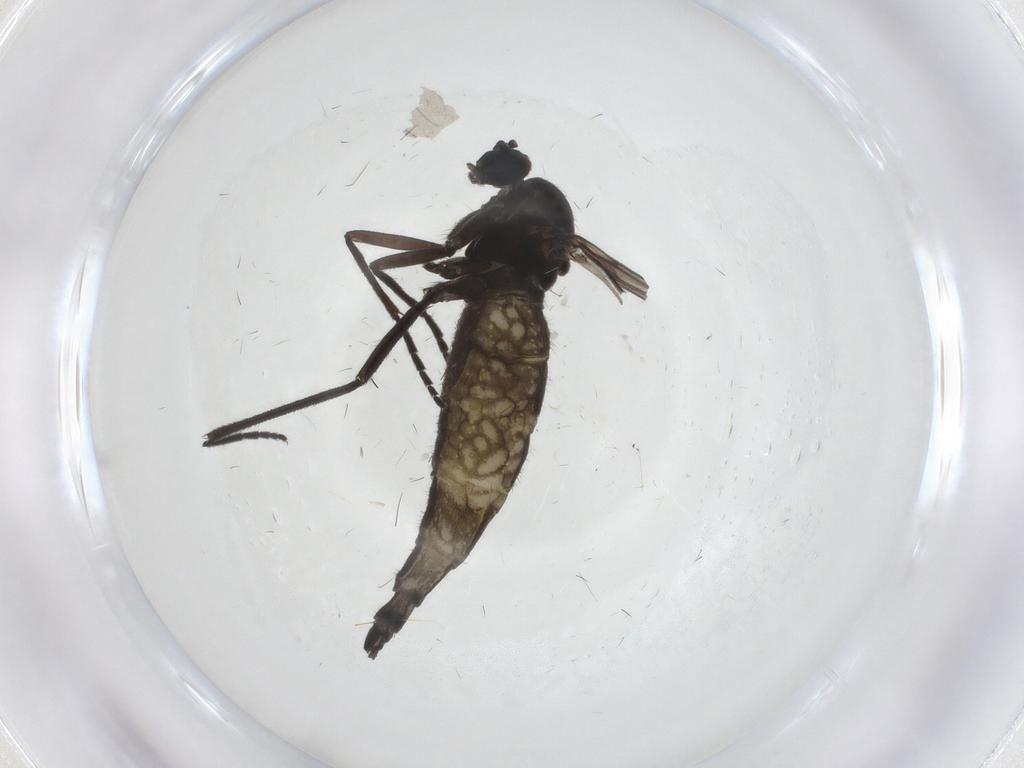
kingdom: Animalia
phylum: Arthropoda
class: Insecta
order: Diptera
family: Sciaridae
